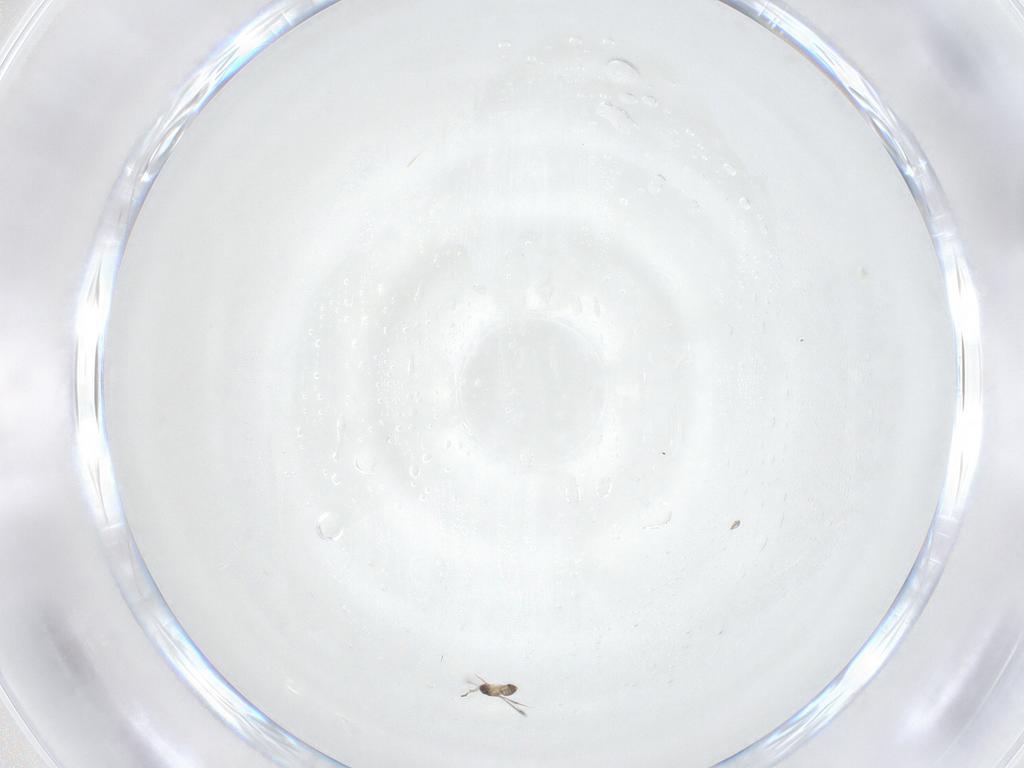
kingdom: Animalia
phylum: Arthropoda
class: Insecta
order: Hymenoptera
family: Mymaridae
